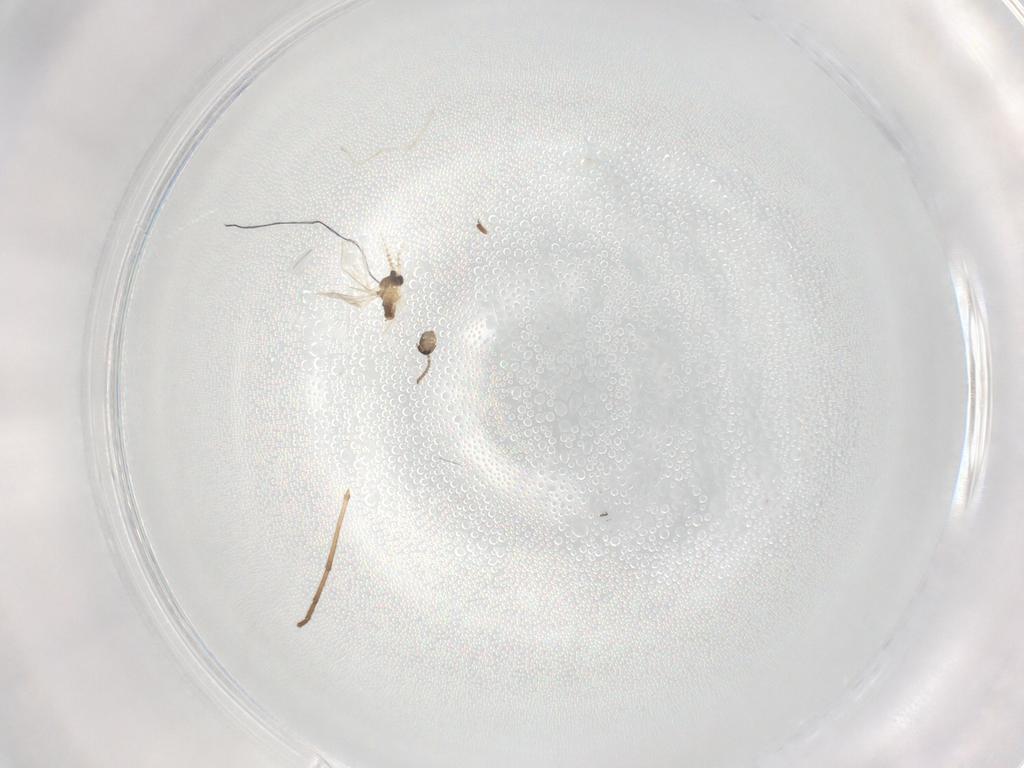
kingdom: Animalia
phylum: Arthropoda
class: Insecta
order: Diptera
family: Cecidomyiidae
